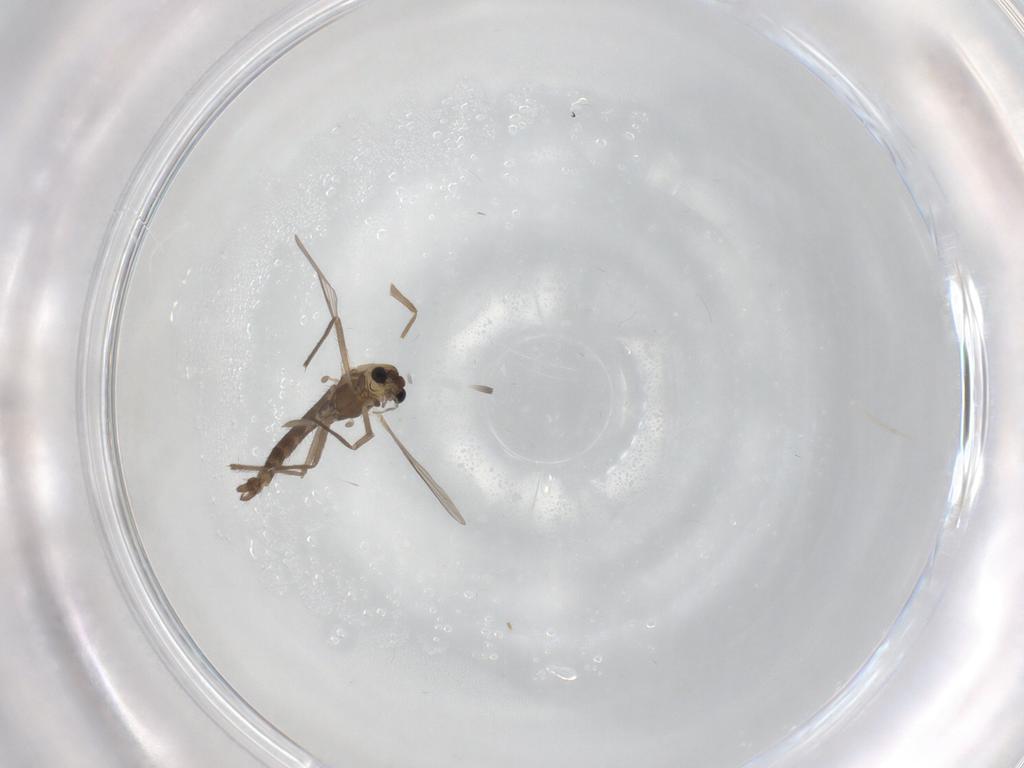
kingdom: Animalia
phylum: Arthropoda
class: Insecta
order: Diptera
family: Chironomidae
